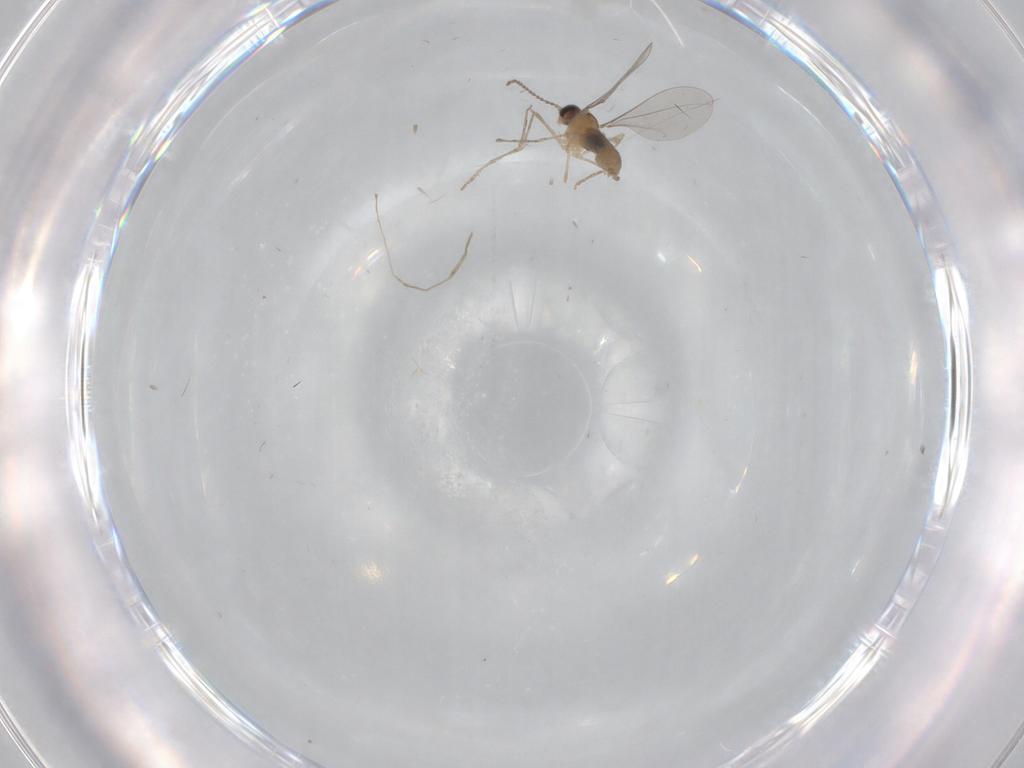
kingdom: Animalia
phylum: Arthropoda
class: Insecta
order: Diptera
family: Cecidomyiidae
